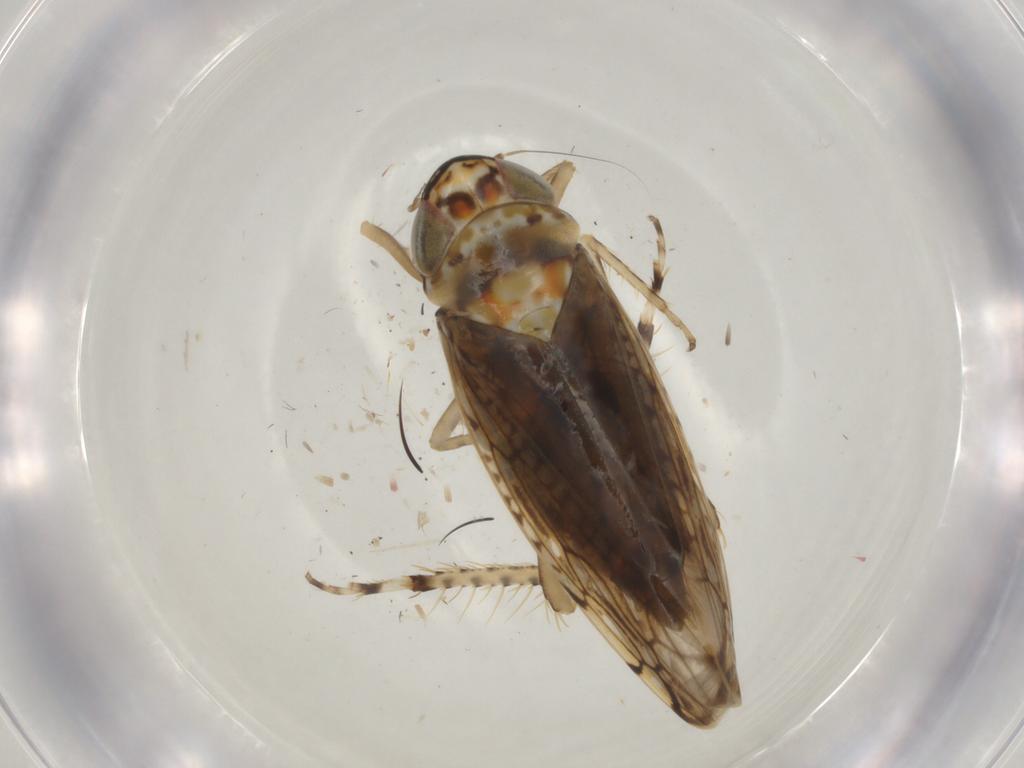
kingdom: Animalia
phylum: Arthropoda
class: Insecta
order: Hemiptera
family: Cicadellidae
